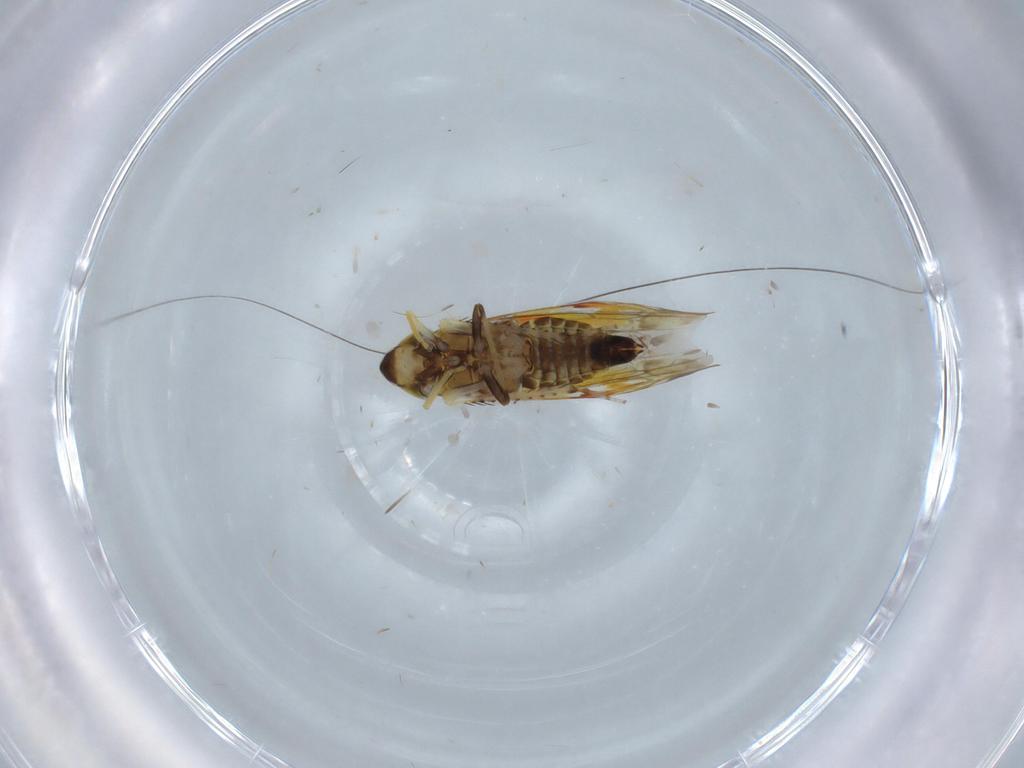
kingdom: Animalia
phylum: Arthropoda
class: Insecta
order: Hemiptera
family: Cicadellidae
